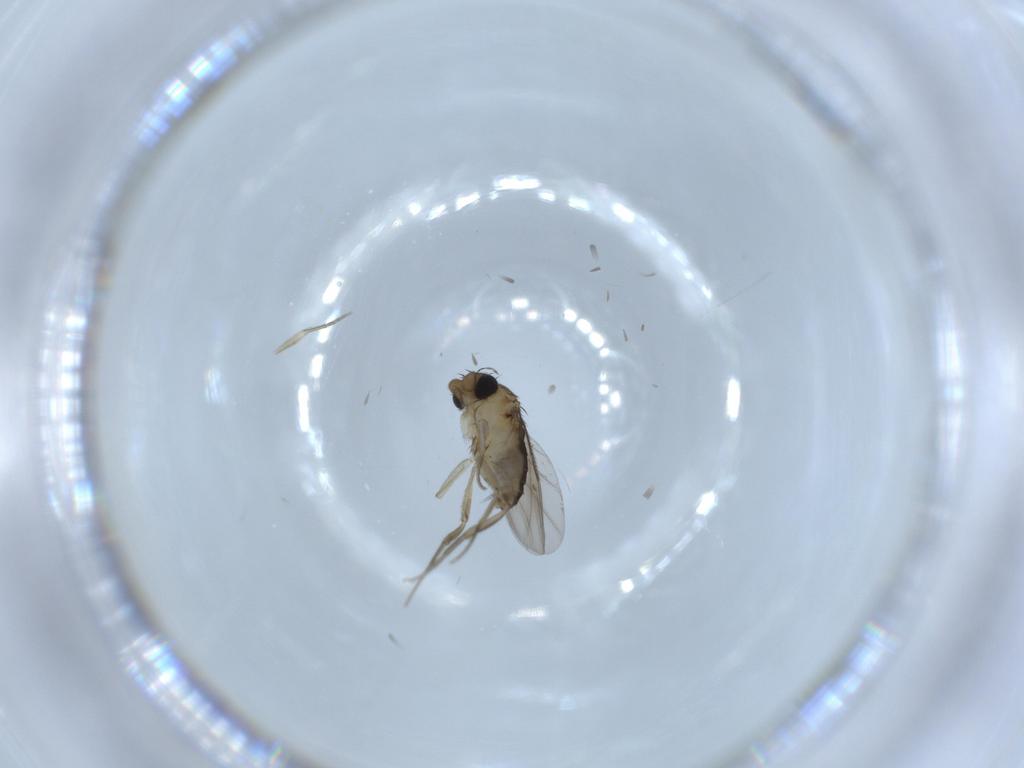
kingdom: Animalia
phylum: Arthropoda
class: Insecta
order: Diptera
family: Phoridae
